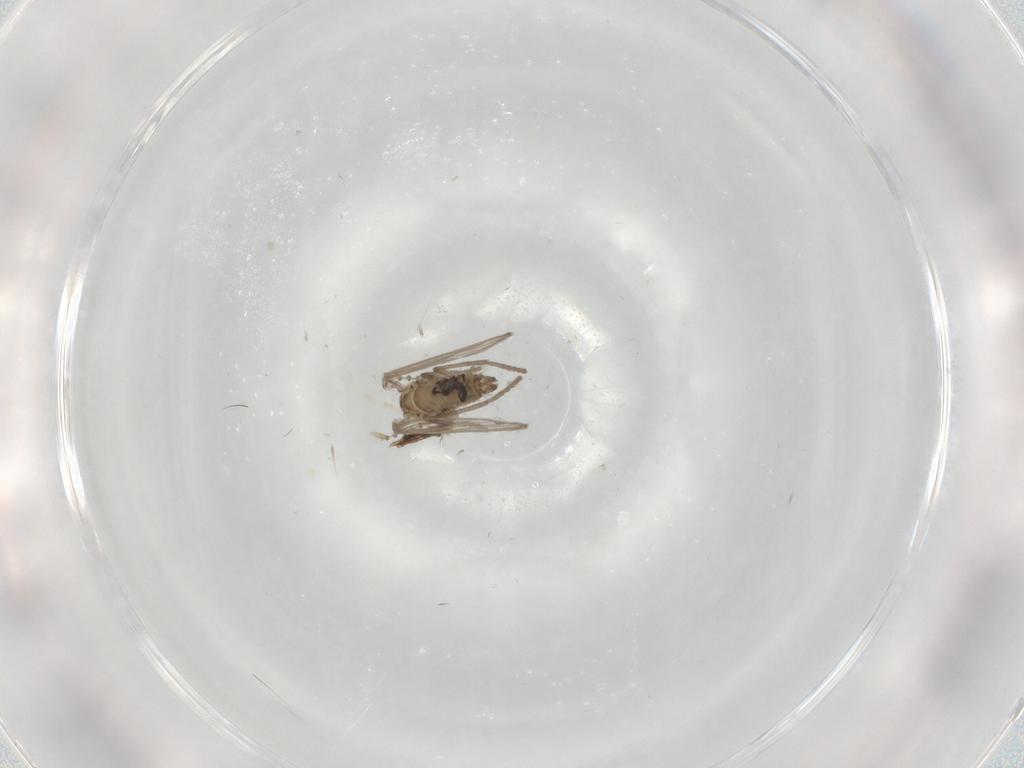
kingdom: Animalia
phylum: Arthropoda
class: Insecta
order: Diptera
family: Psychodidae
